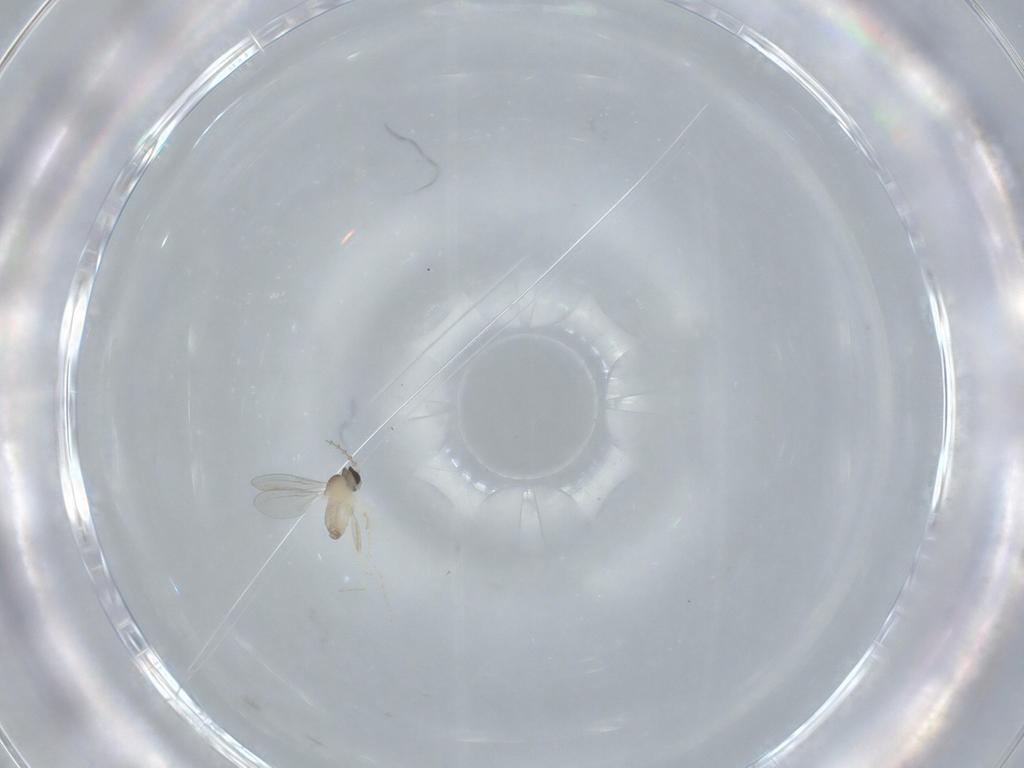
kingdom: Animalia
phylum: Arthropoda
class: Insecta
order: Diptera
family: Cecidomyiidae
